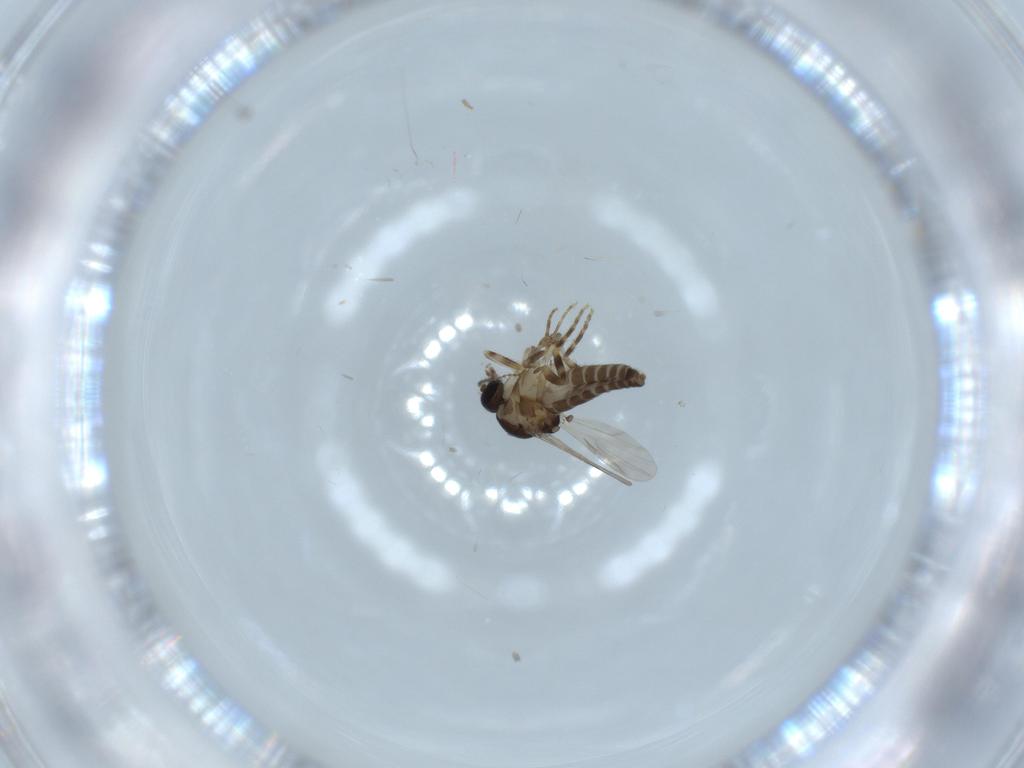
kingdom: Animalia
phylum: Arthropoda
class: Insecta
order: Diptera
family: Ceratopogonidae
